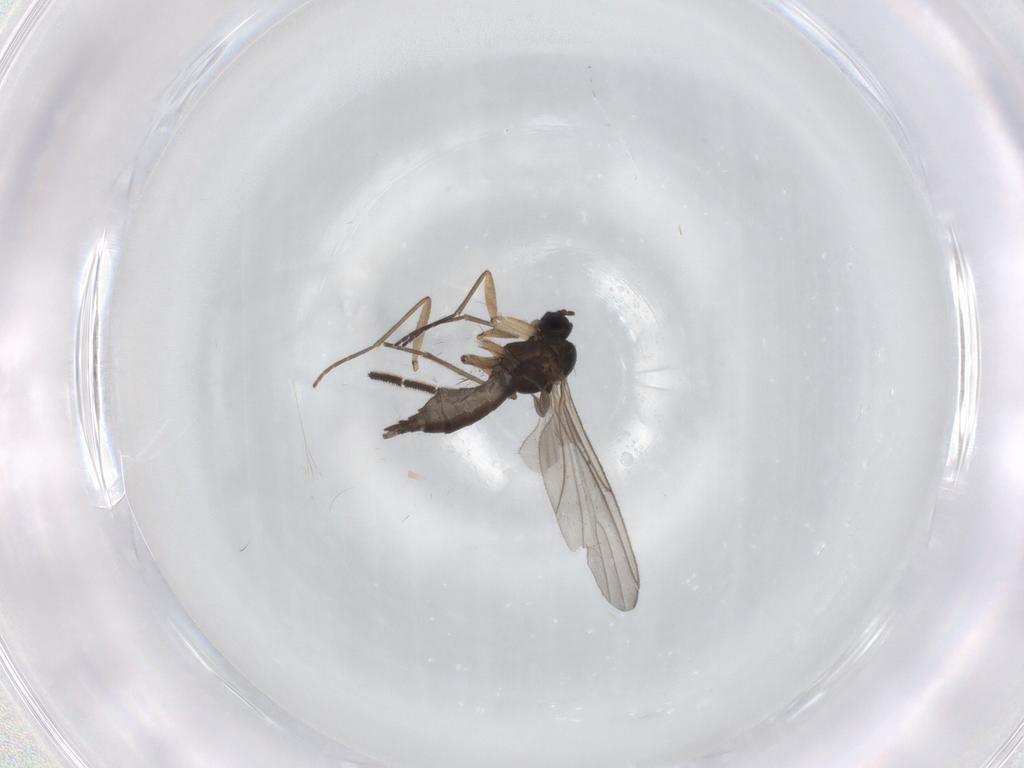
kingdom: Animalia
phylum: Arthropoda
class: Insecta
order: Diptera
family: Sciaridae
